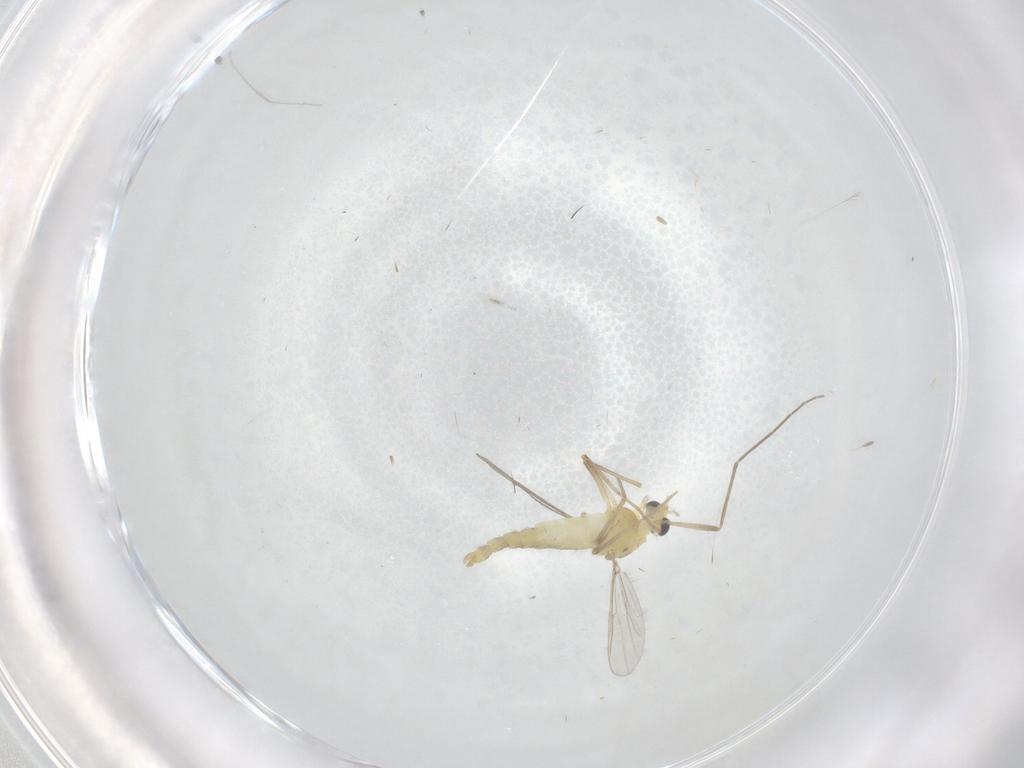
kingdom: Animalia
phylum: Arthropoda
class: Insecta
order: Diptera
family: Chironomidae
